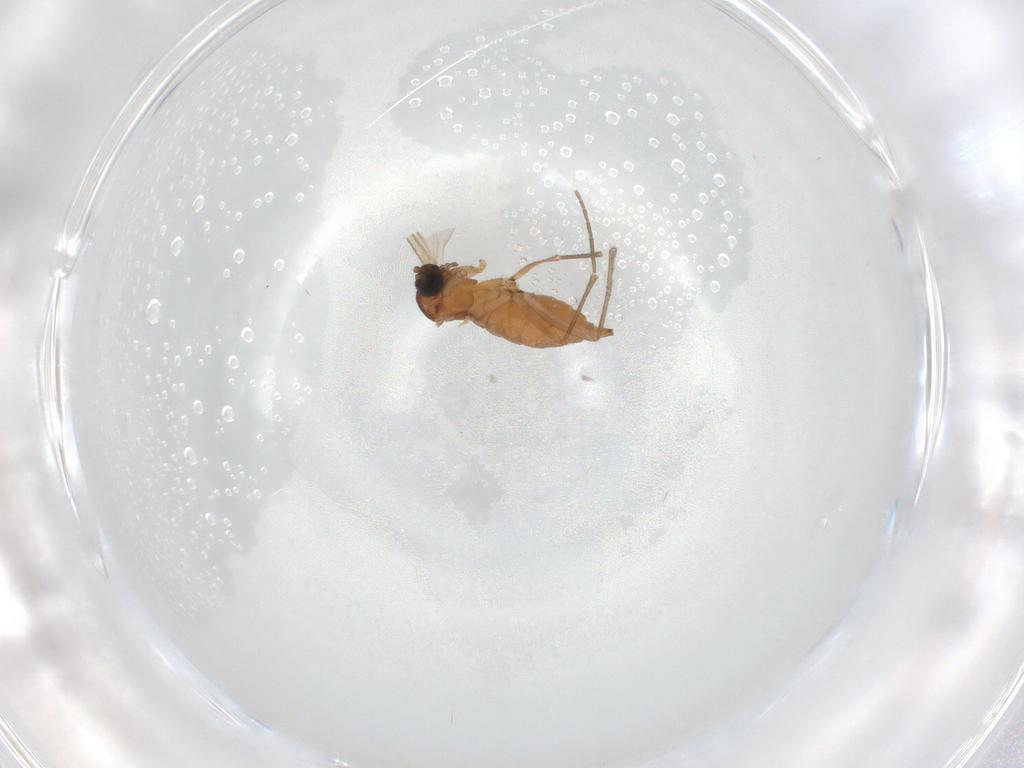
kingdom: Animalia
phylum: Arthropoda
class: Insecta
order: Diptera
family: Sciaridae
